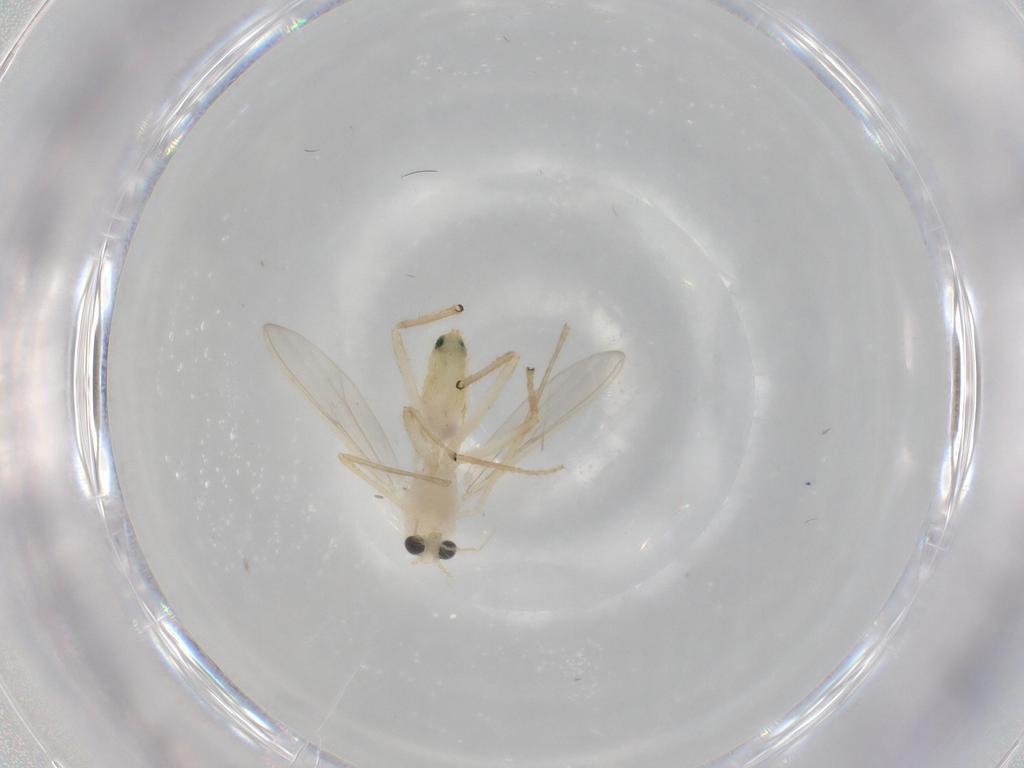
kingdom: Animalia
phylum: Arthropoda
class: Insecta
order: Diptera
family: Chironomidae
